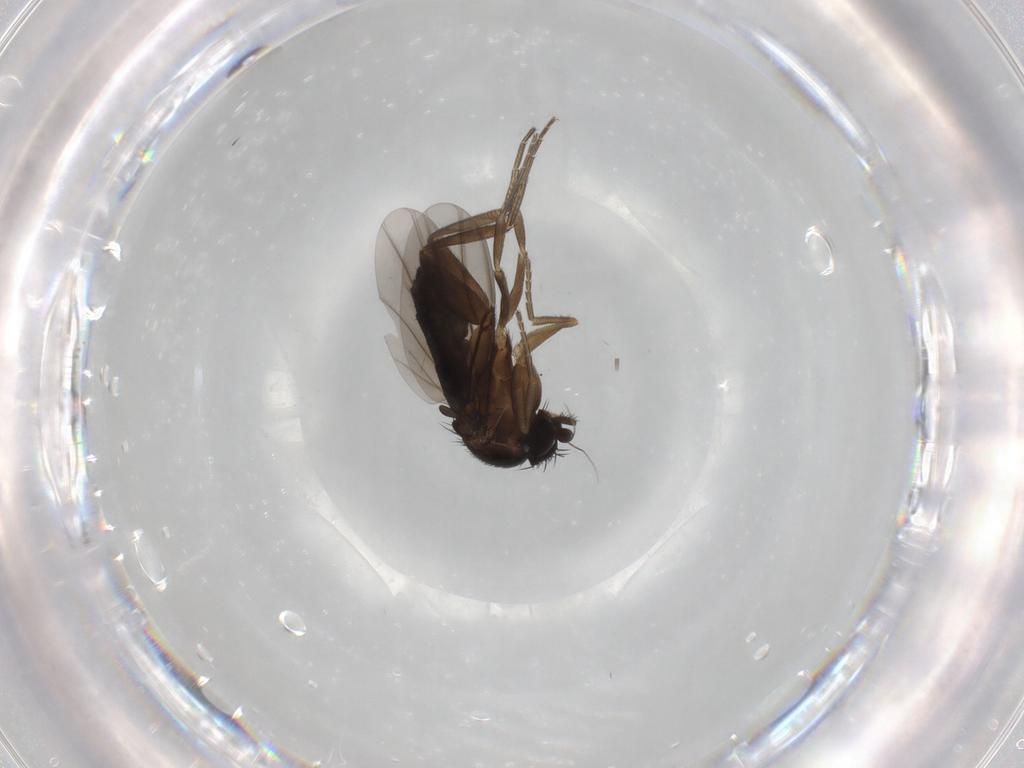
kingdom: Animalia
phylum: Arthropoda
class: Insecta
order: Diptera
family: Phoridae
